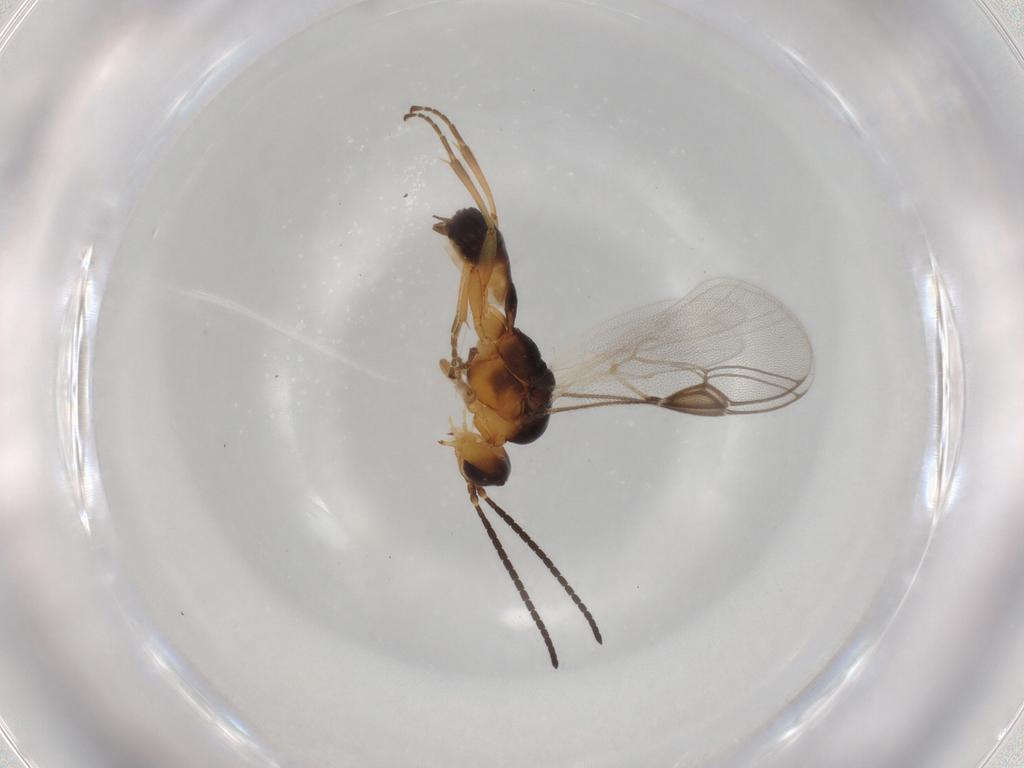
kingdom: Animalia
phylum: Arthropoda
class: Insecta
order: Hymenoptera
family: Braconidae
